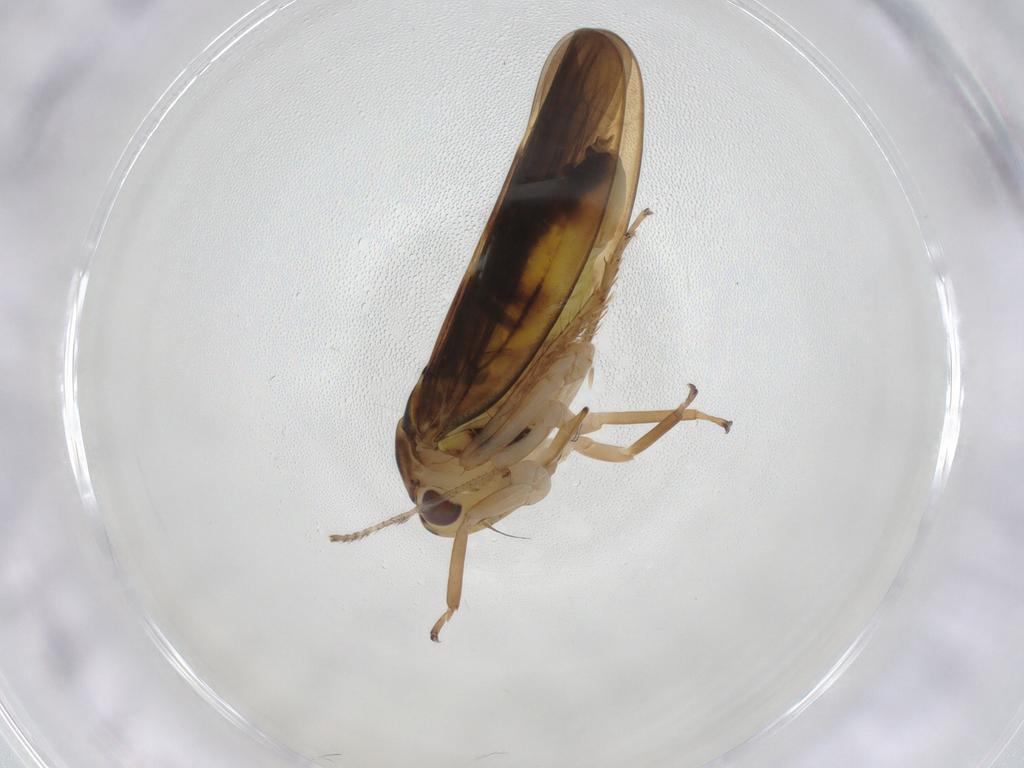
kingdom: Animalia
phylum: Arthropoda
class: Insecta
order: Hemiptera
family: Cicadellidae
